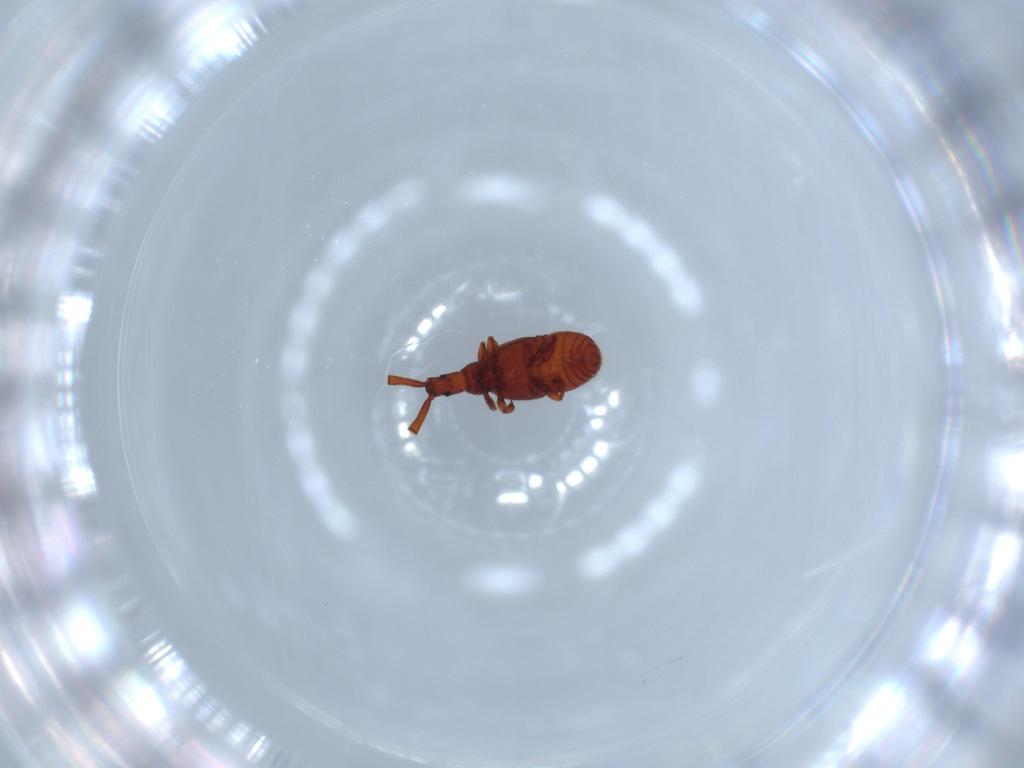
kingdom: Animalia
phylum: Arthropoda
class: Insecta
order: Coleoptera
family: Staphylinidae
